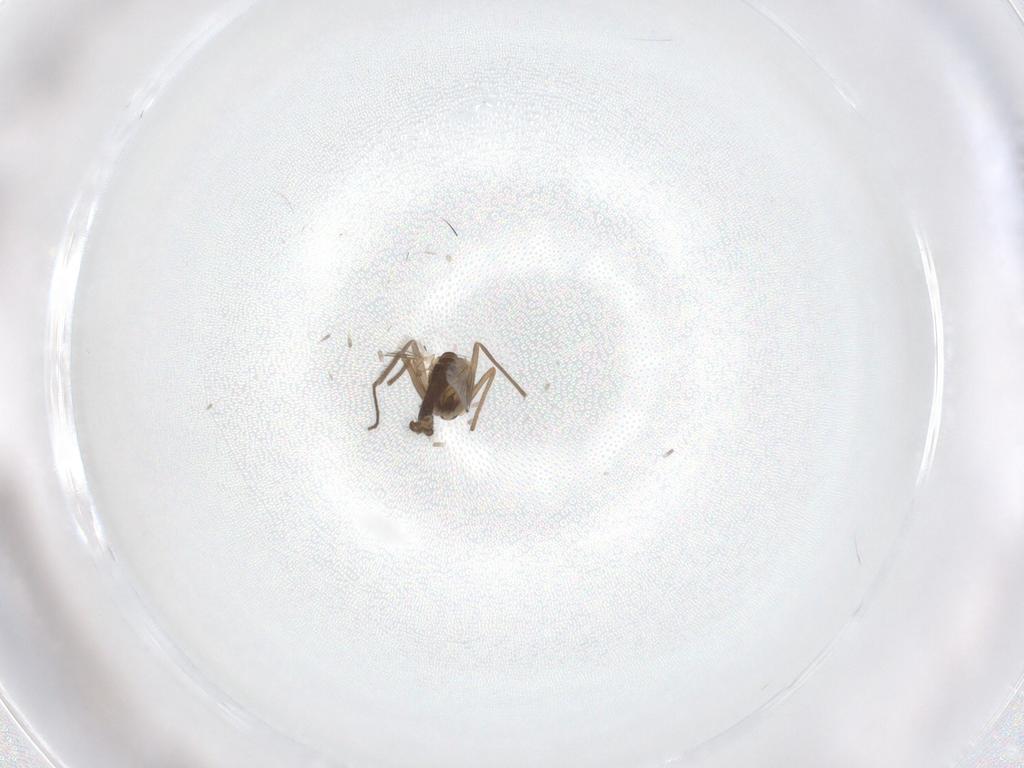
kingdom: Animalia
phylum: Arthropoda
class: Insecta
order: Diptera
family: Chironomidae
